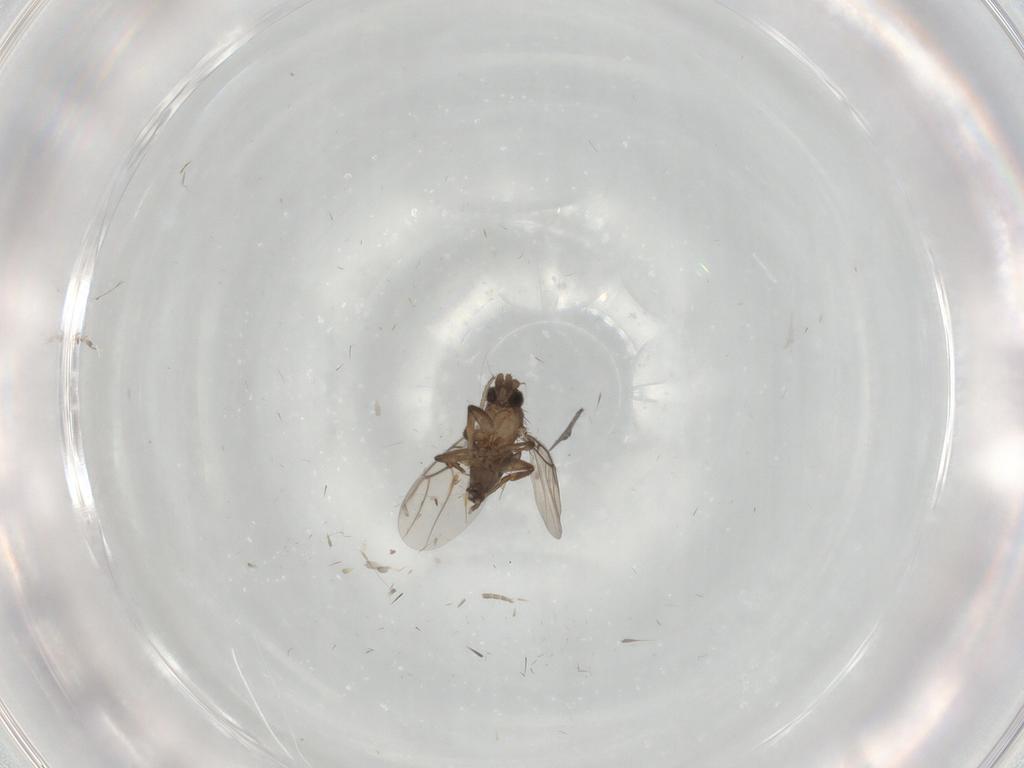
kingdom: Animalia
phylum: Arthropoda
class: Insecta
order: Diptera
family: Phoridae
